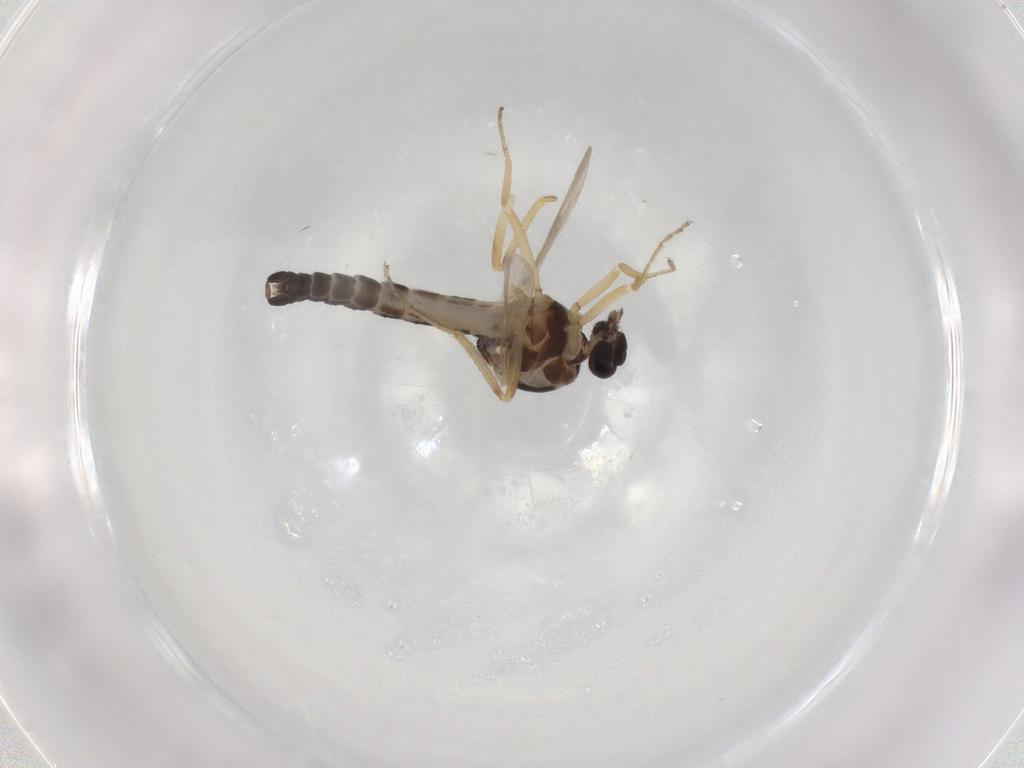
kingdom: Animalia
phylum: Arthropoda
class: Insecta
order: Diptera
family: Ceratopogonidae
